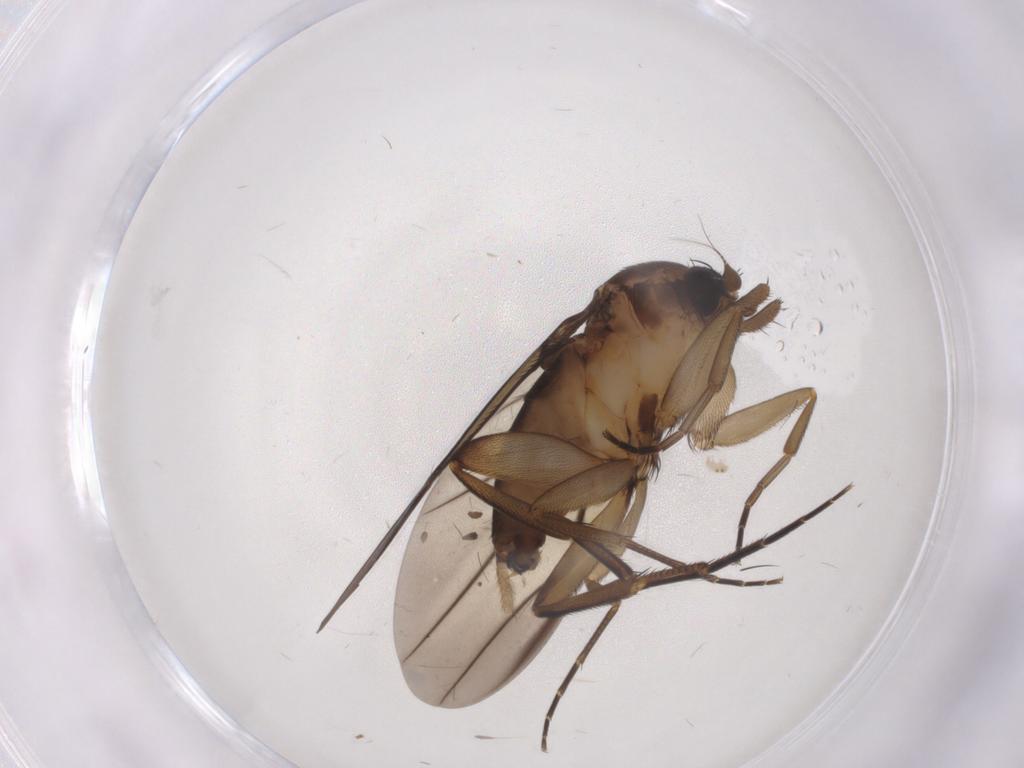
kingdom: Animalia
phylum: Arthropoda
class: Insecta
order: Diptera
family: Phoridae
